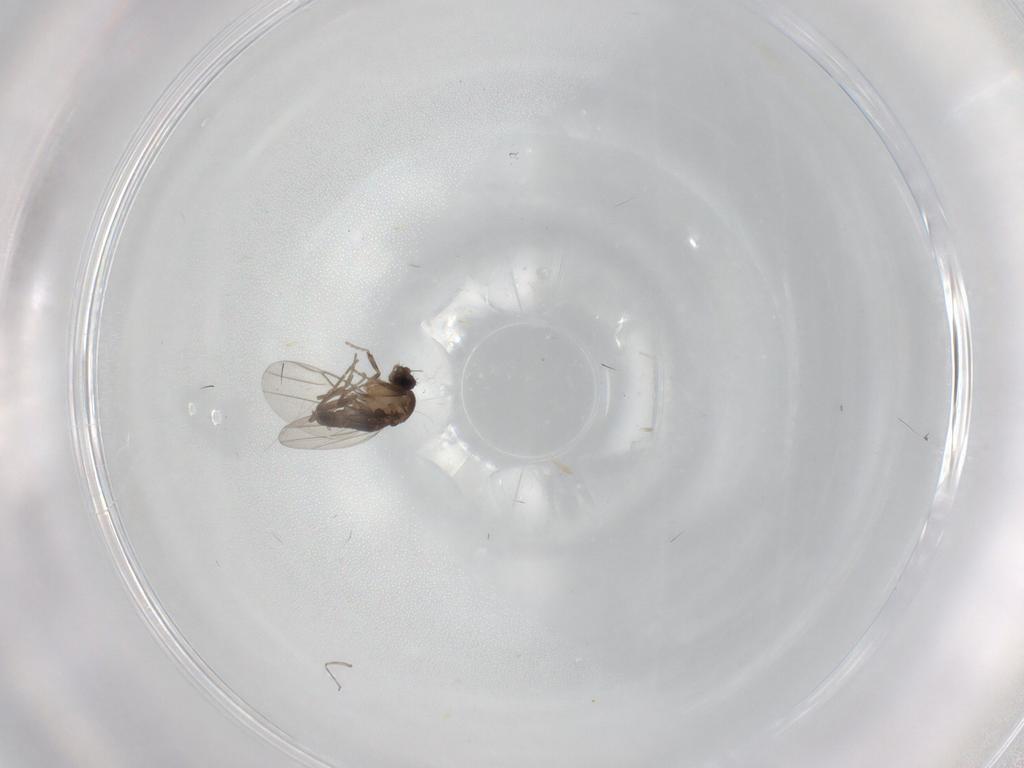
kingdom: Animalia
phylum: Arthropoda
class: Insecta
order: Diptera
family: Phoridae
